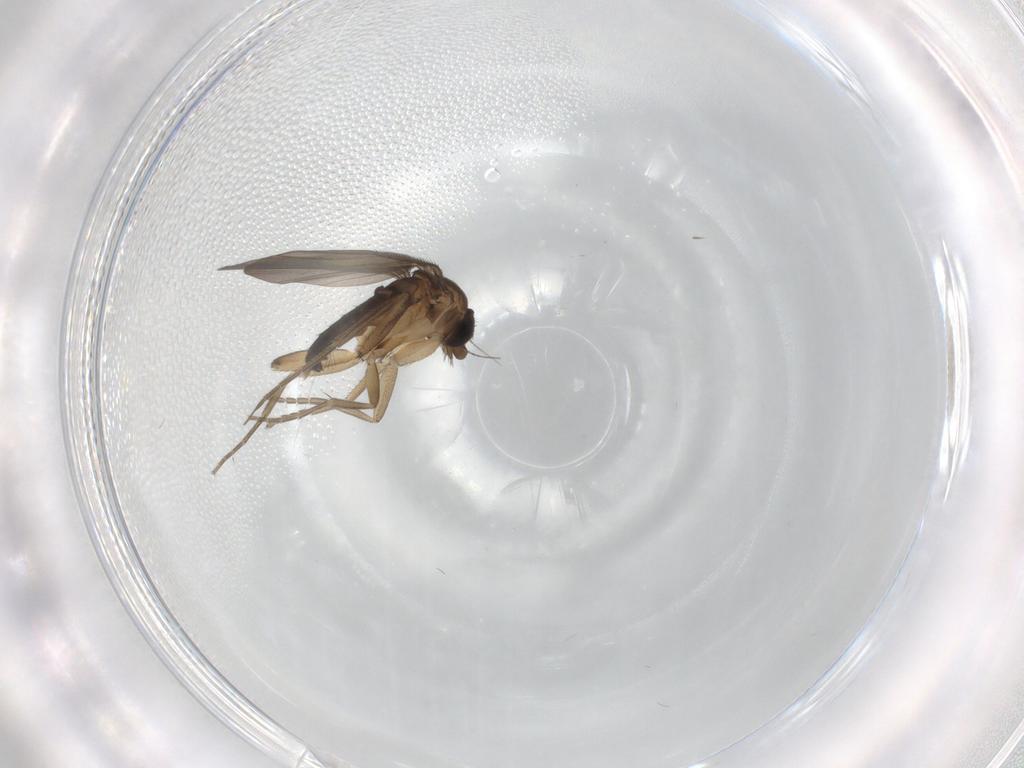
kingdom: Animalia
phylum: Arthropoda
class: Insecta
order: Diptera
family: Phoridae
